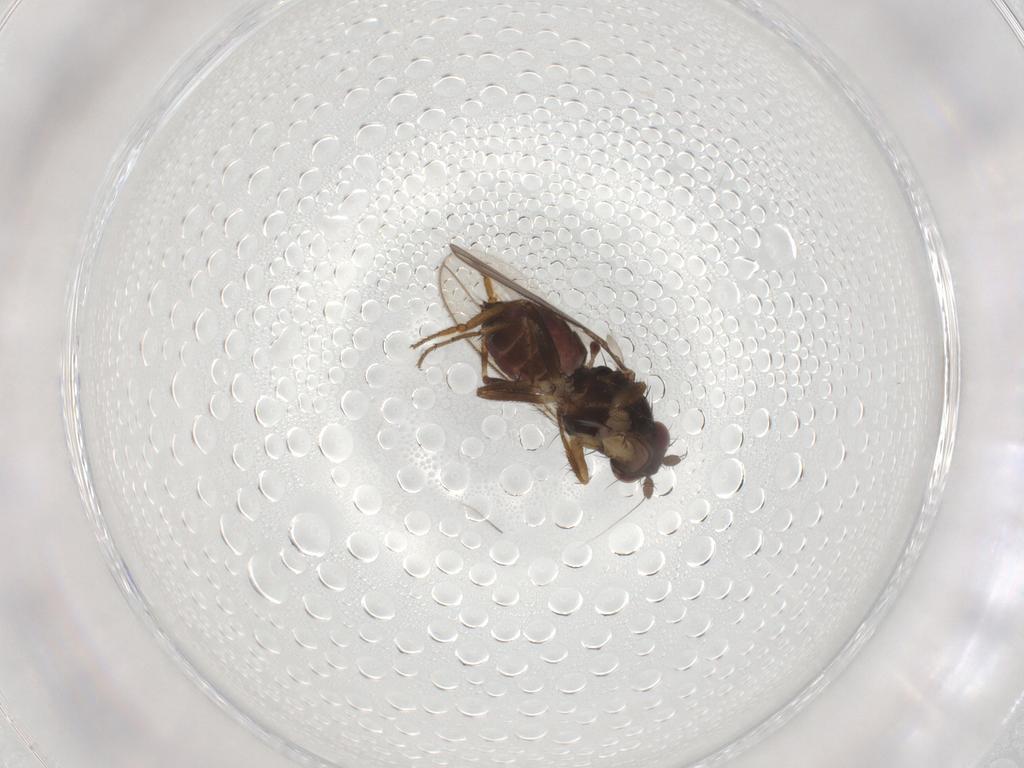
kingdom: Animalia
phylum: Arthropoda
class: Insecta
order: Diptera
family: Sphaeroceridae
